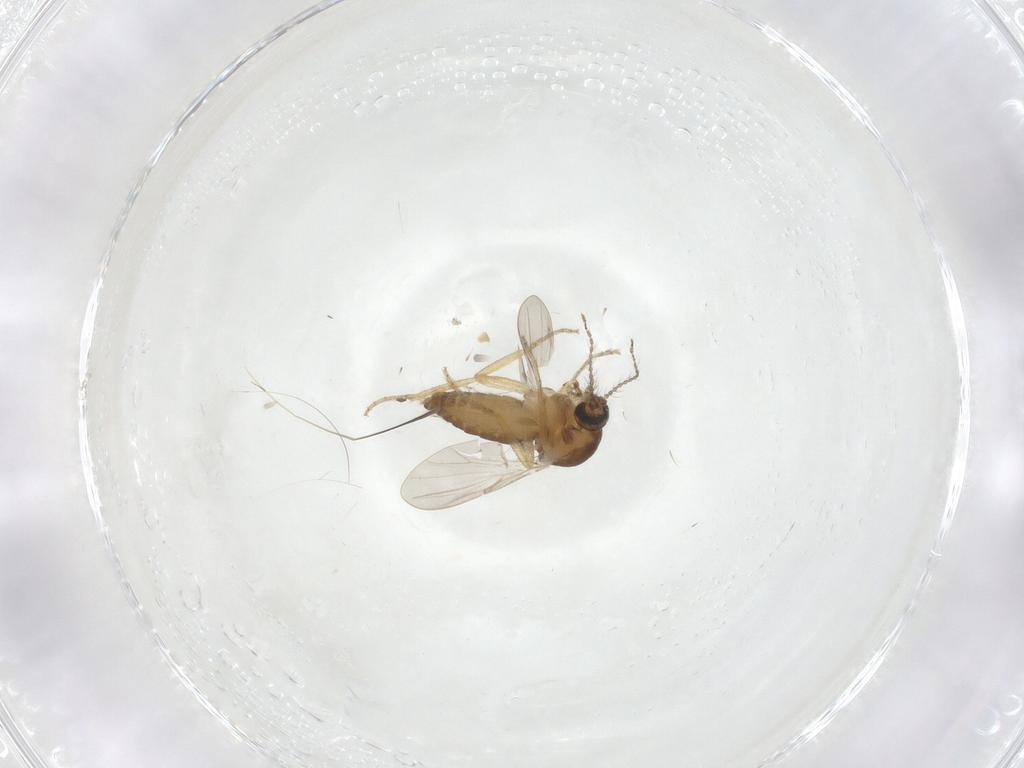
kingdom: Animalia
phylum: Arthropoda
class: Insecta
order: Diptera
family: Ceratopogonidae
